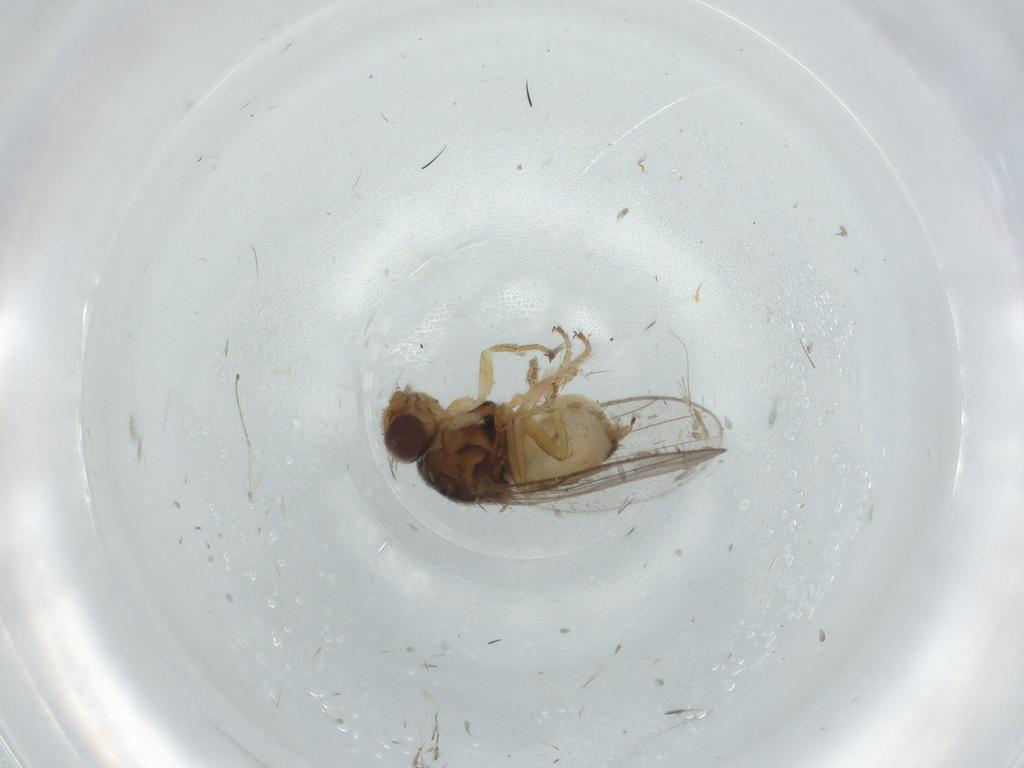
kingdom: Animalia
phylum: Arthropoda
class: Insecta
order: Diptera
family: Chloropidae
